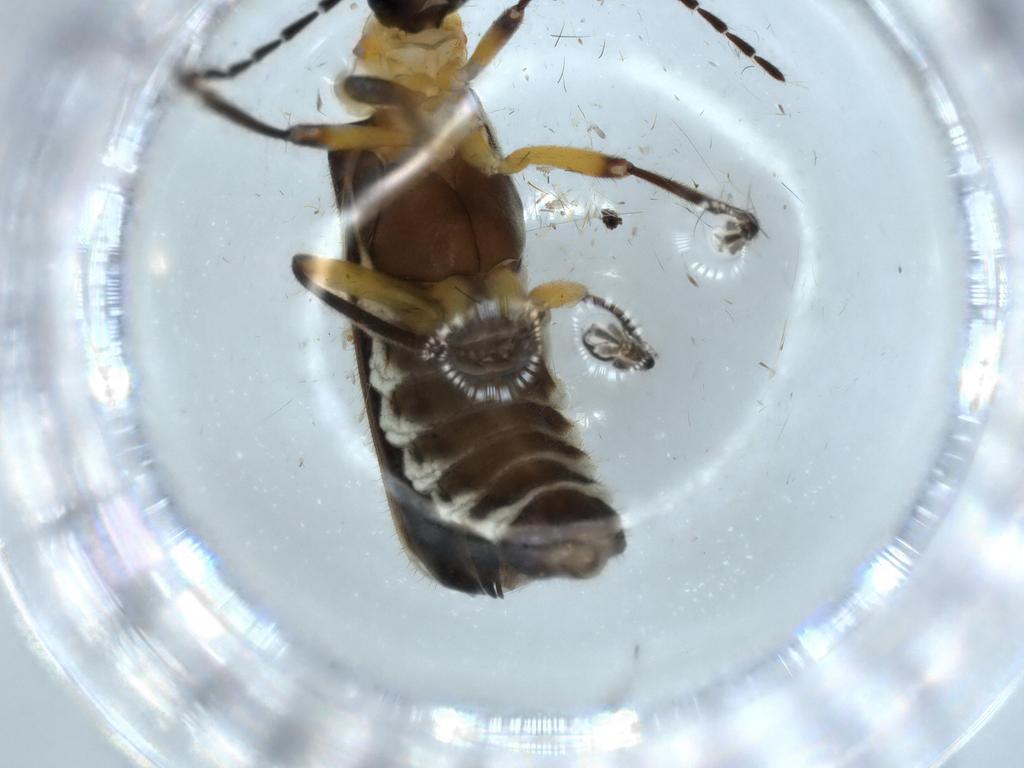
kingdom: Animalia
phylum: Arthropoda
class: Insecta
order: Coleoptera
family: Cantharidae
